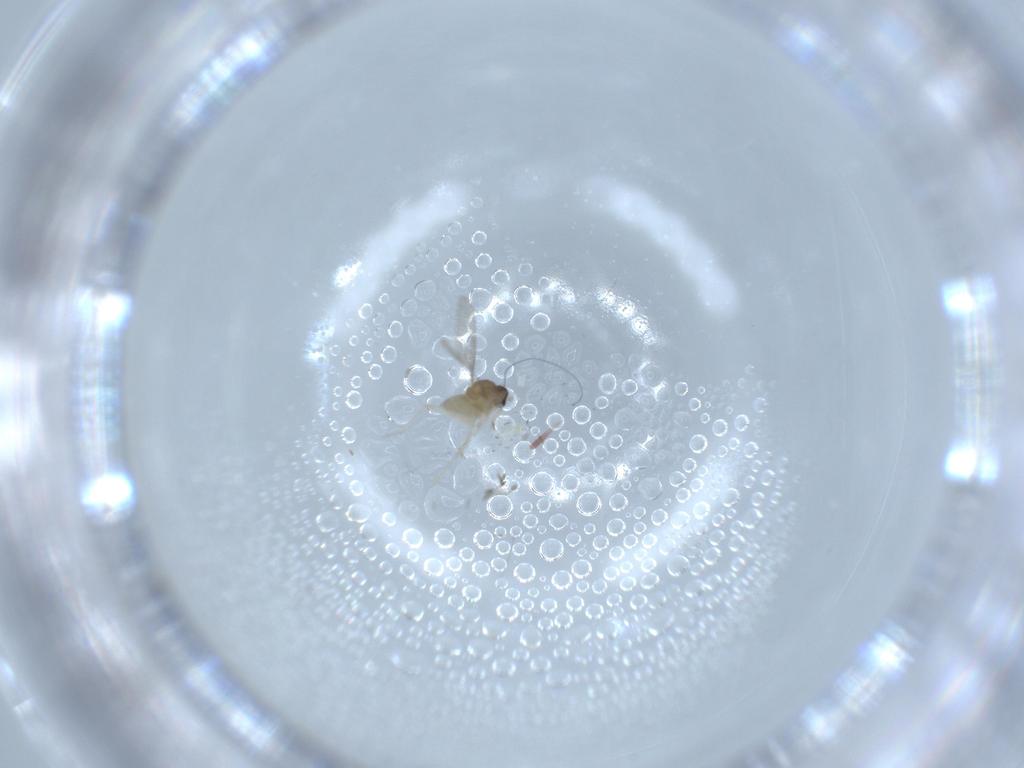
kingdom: Animalia
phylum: Arthropoda
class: Insecta
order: Diptera
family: Cecidomyiidae
